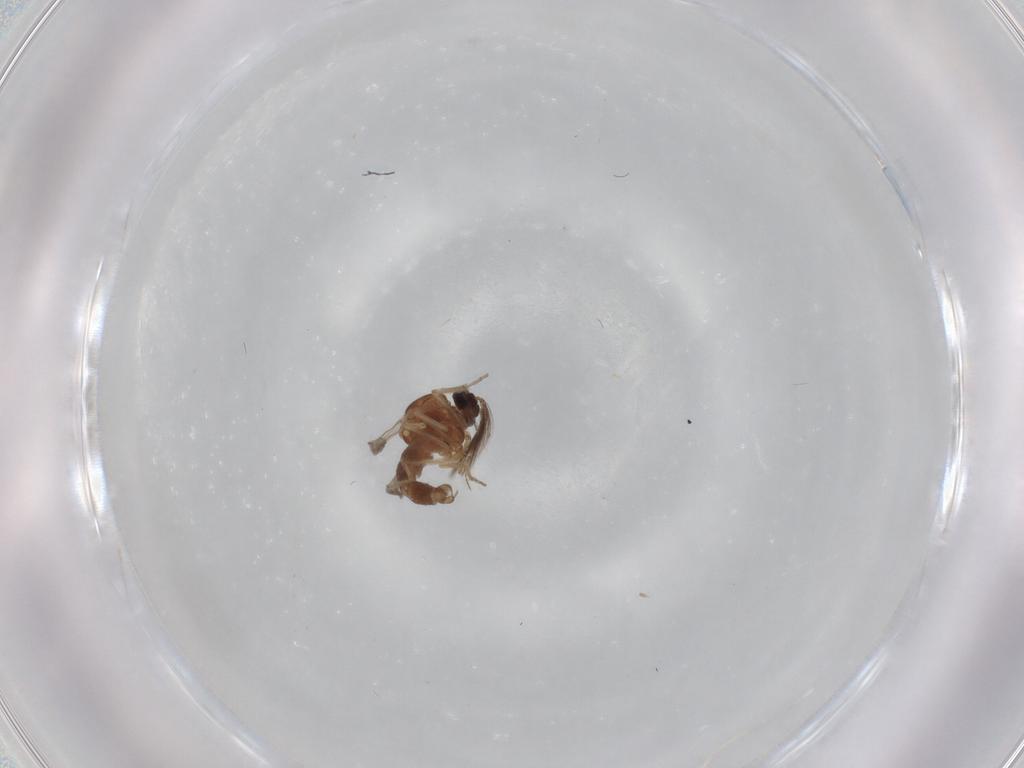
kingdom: Animalia
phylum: Arthropoda
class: Insecta
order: Diptera
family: Ceratopogonidae
